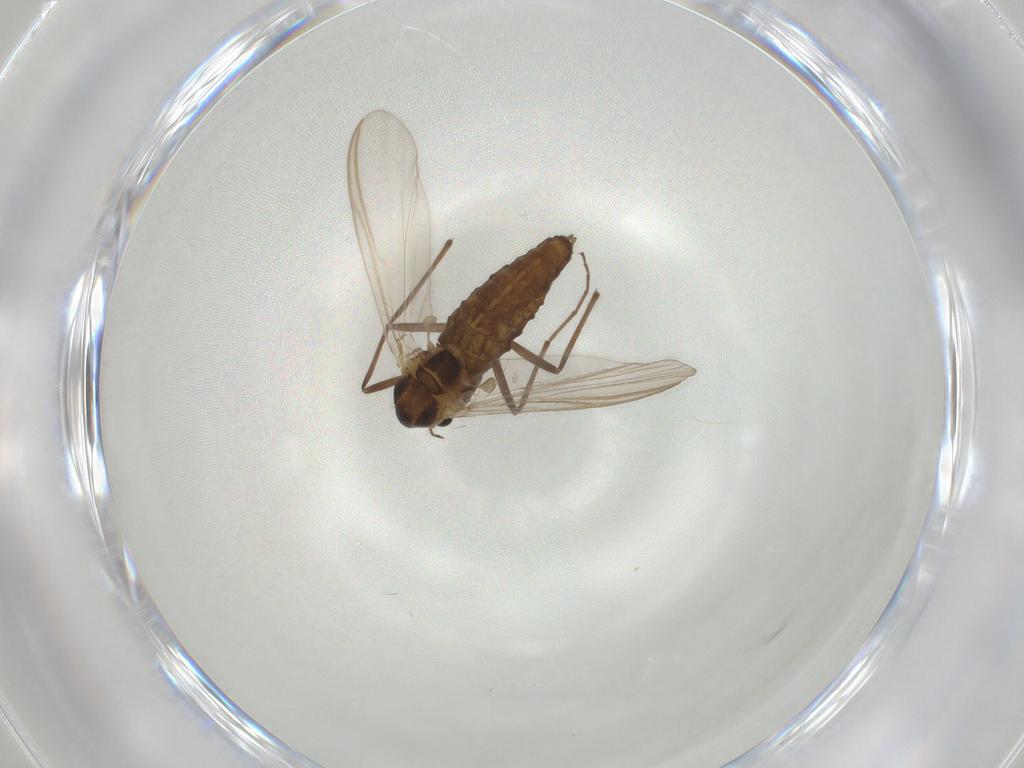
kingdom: Animalia
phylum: Arthropoda
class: Insecta
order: Diptera
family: Chironomidae
